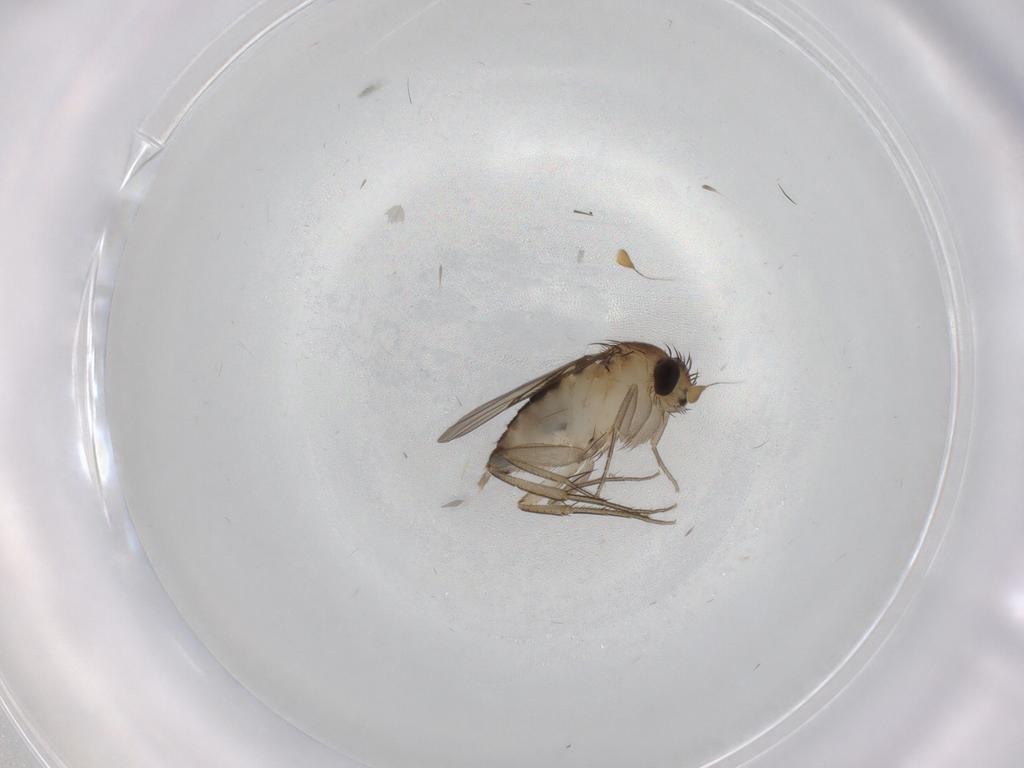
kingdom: Animalia
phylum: Arthropoda
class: Insecta
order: Diptera
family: Phoridae
